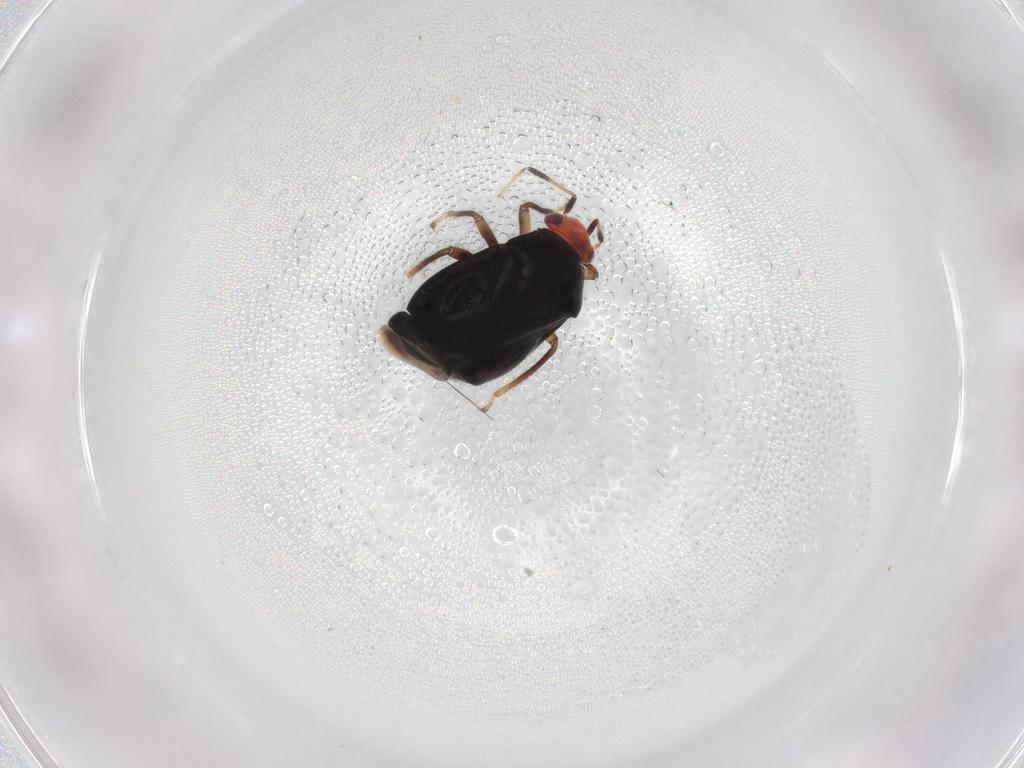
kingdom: Animalia
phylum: Arthropoda
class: Insecta
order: Hemiptera
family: Miridae
